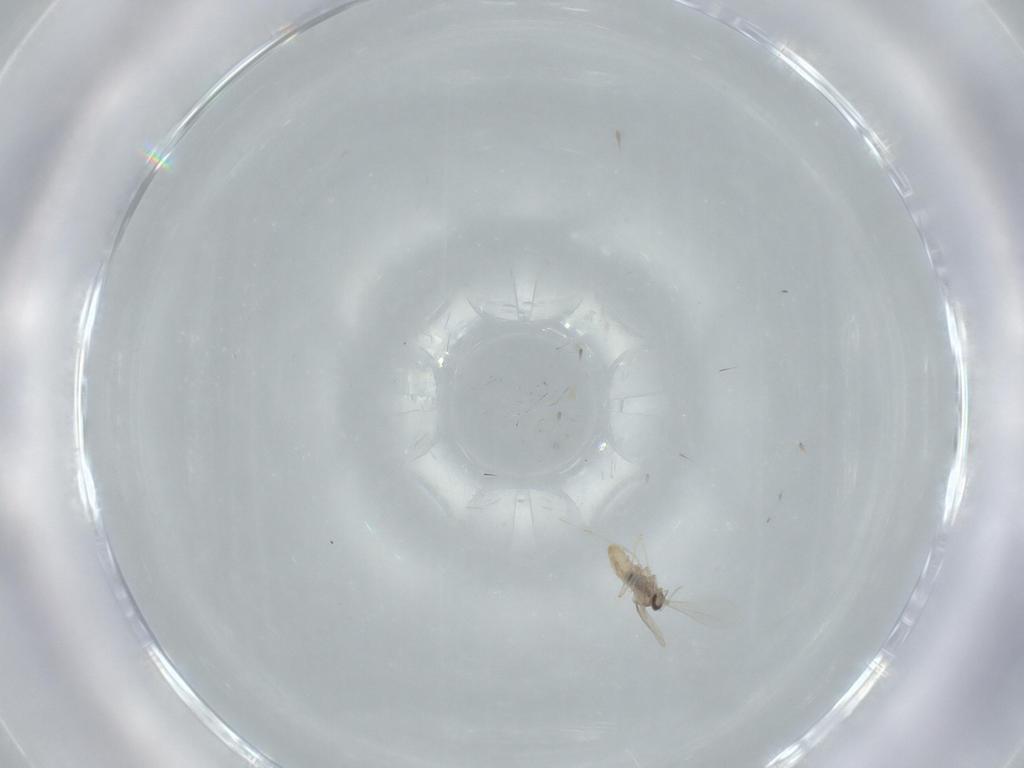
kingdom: Animalia
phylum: Arthropoda
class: Insecta
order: Diptera
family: Cecidomyiidae
